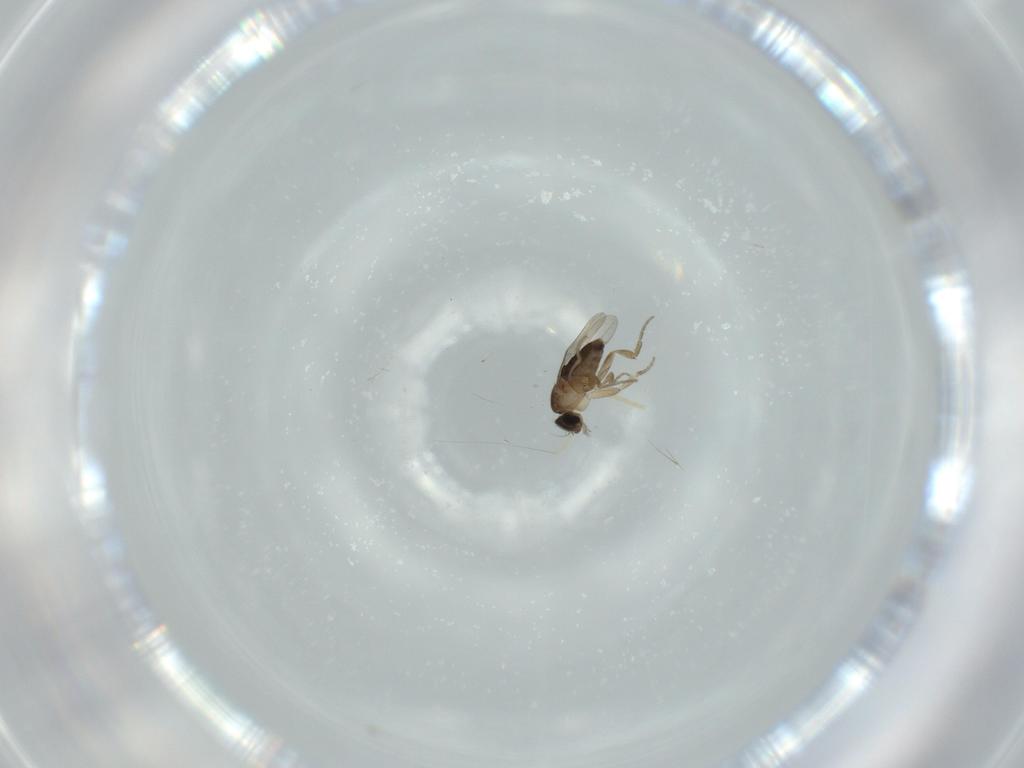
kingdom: Animalia
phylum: Arthropoda
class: Insecta
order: Diptera
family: Phoridae
